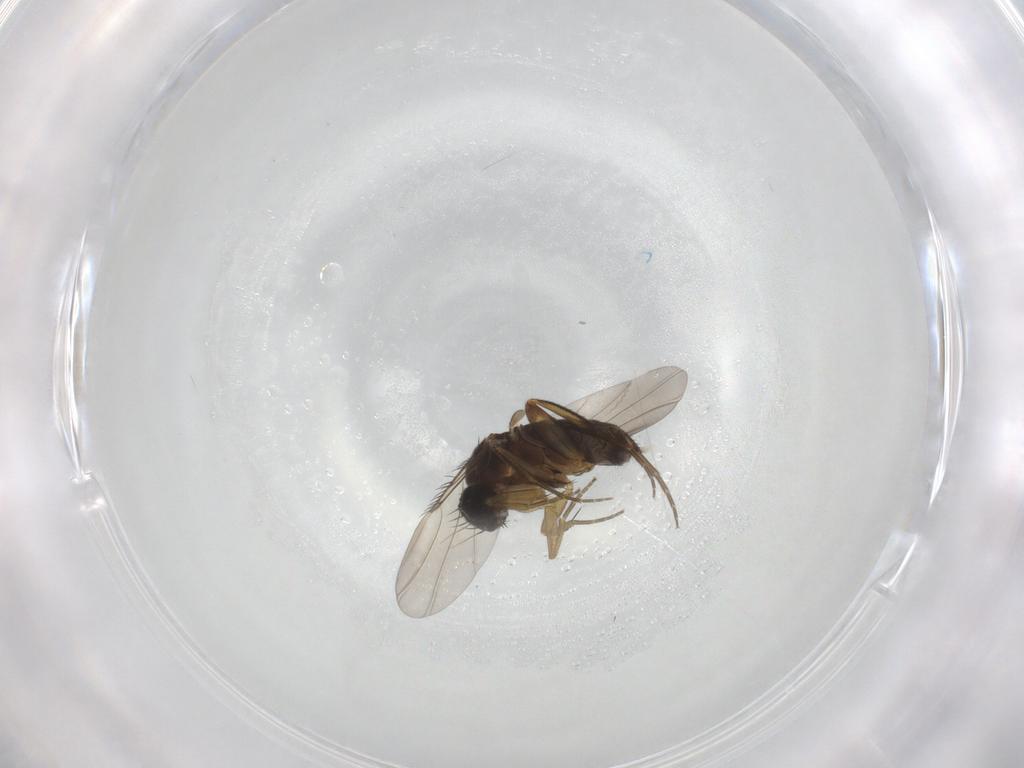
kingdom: Animalia
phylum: Arthropoda
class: Insecta
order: Diptera
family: Phoridae
